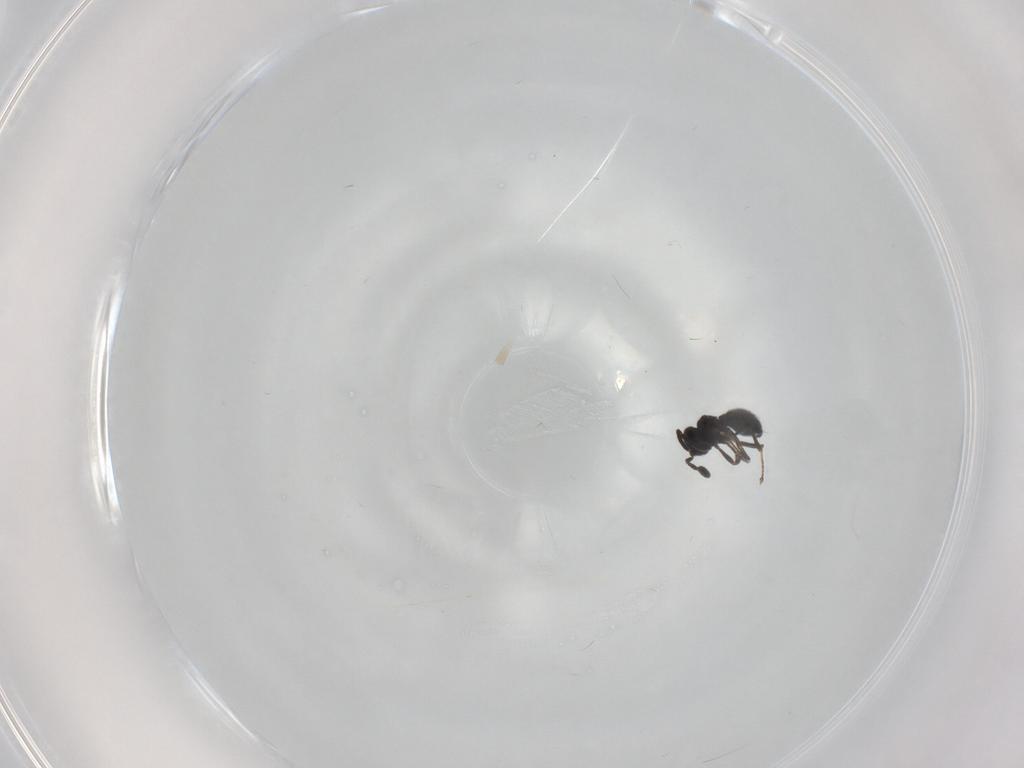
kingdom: Animalia
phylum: Arthropoda
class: Insecta
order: Hymenoptera
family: Scelionidae
